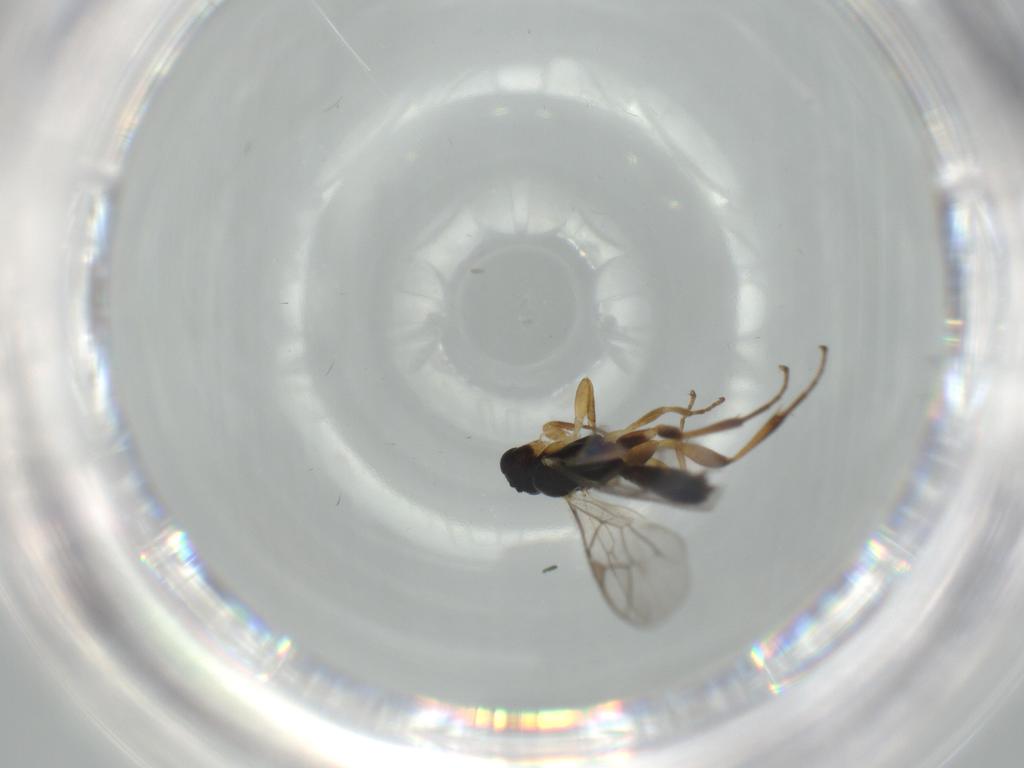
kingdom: Animalia
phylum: Arthropoda
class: Insecta
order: Hymenoptera
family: Ichneumonidae
